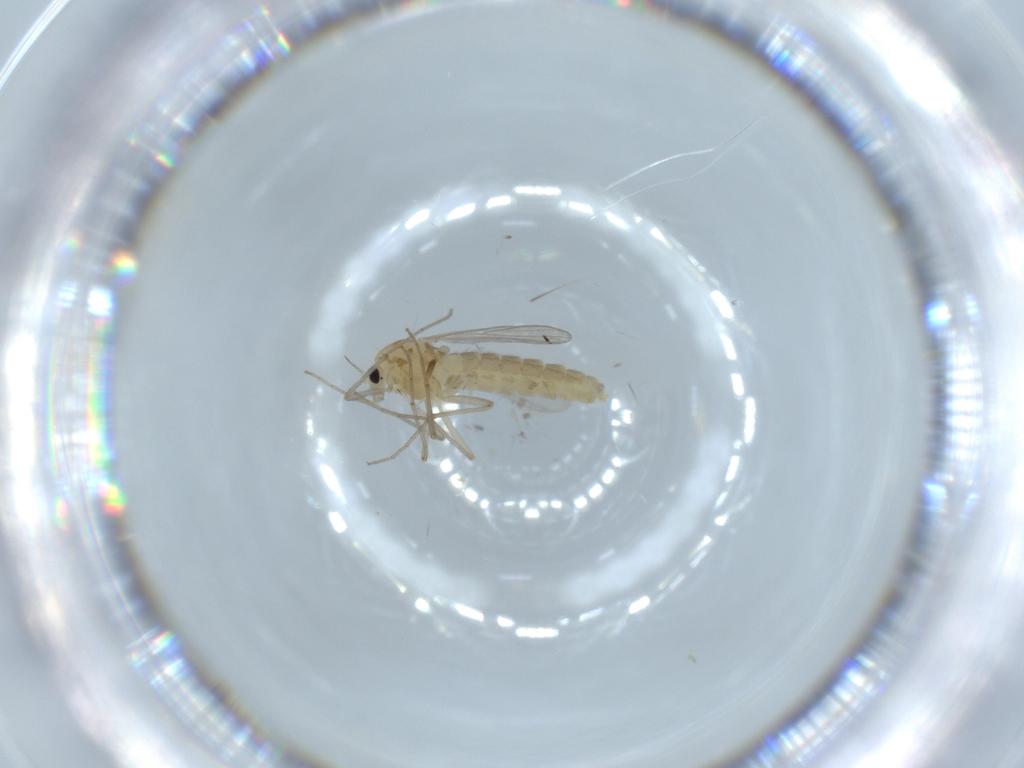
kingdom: Animalia
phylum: Arthropoda
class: Insecta
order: Diptera
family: Chironomidae
